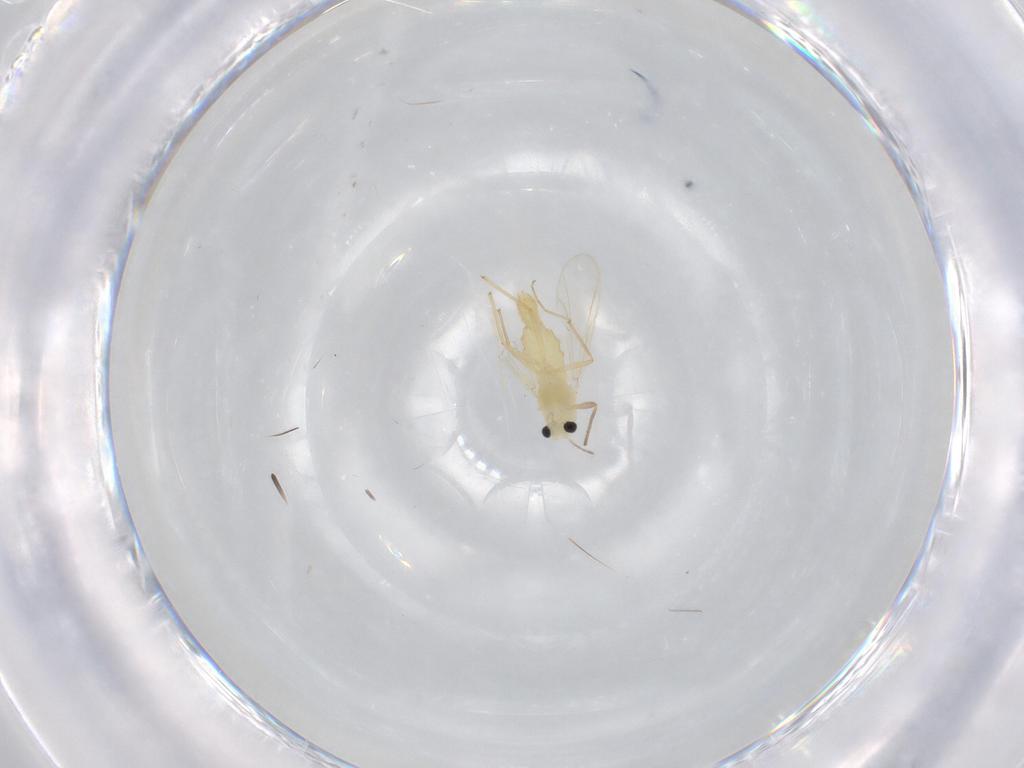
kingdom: Animalia
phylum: Arthropoda
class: Insecta
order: Diptera
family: Chironomidae
